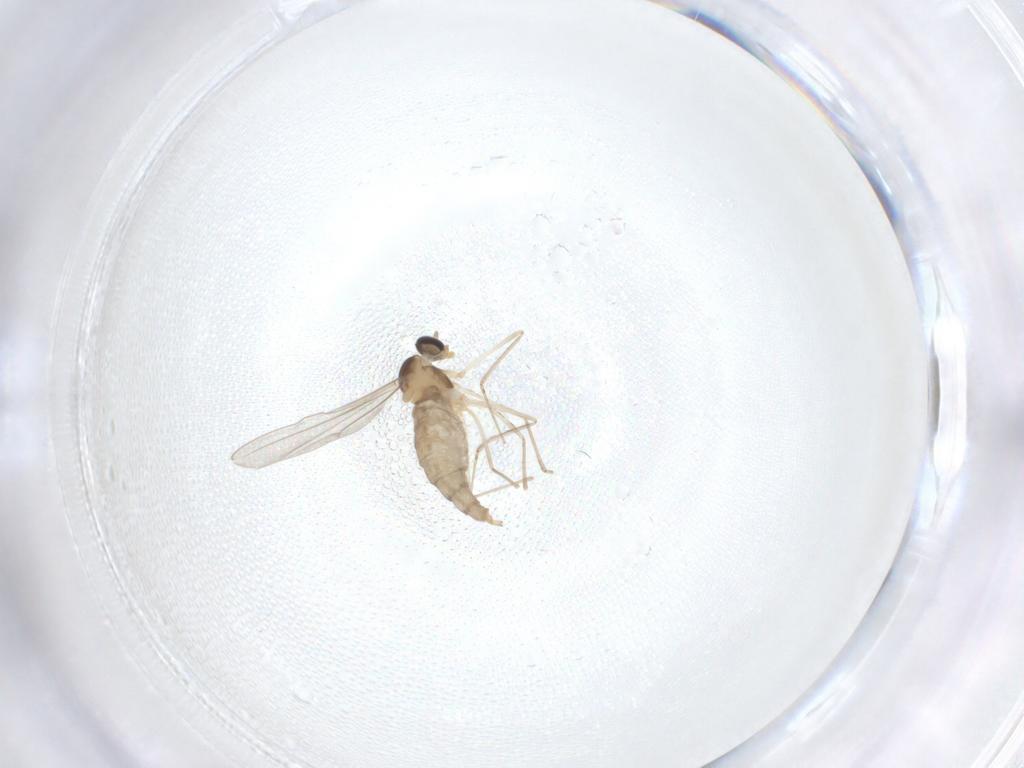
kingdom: Animalia
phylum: Arthropoda
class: Insecta
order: Diptera
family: Cecidomyiidae
